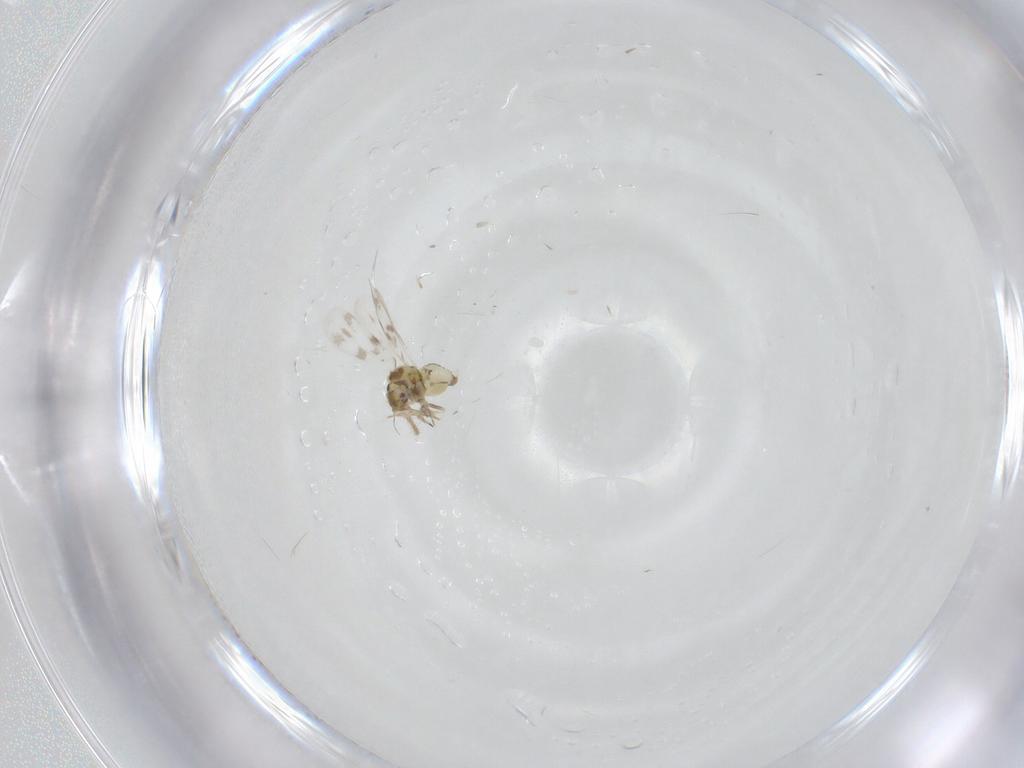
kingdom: Animalia
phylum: Arthropoda
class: Insecta
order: Hemiptera
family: Aleyrodidae
